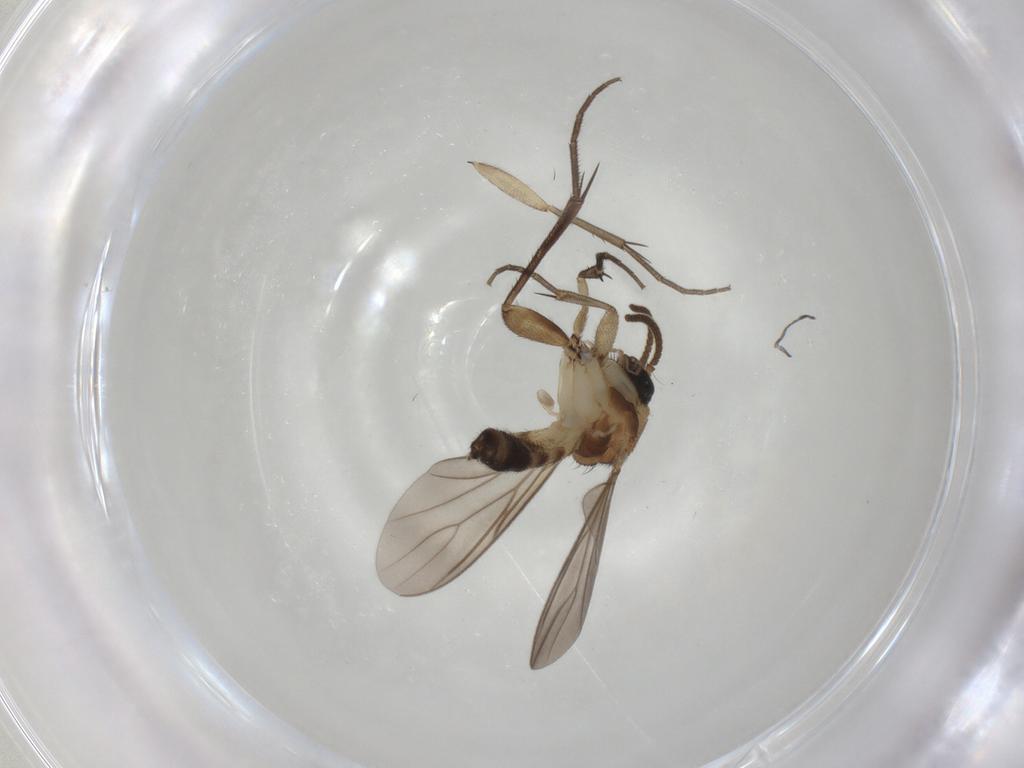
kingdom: Animalia
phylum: Arthropoda
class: Insecta
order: Diptera
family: Mycetophilidae
